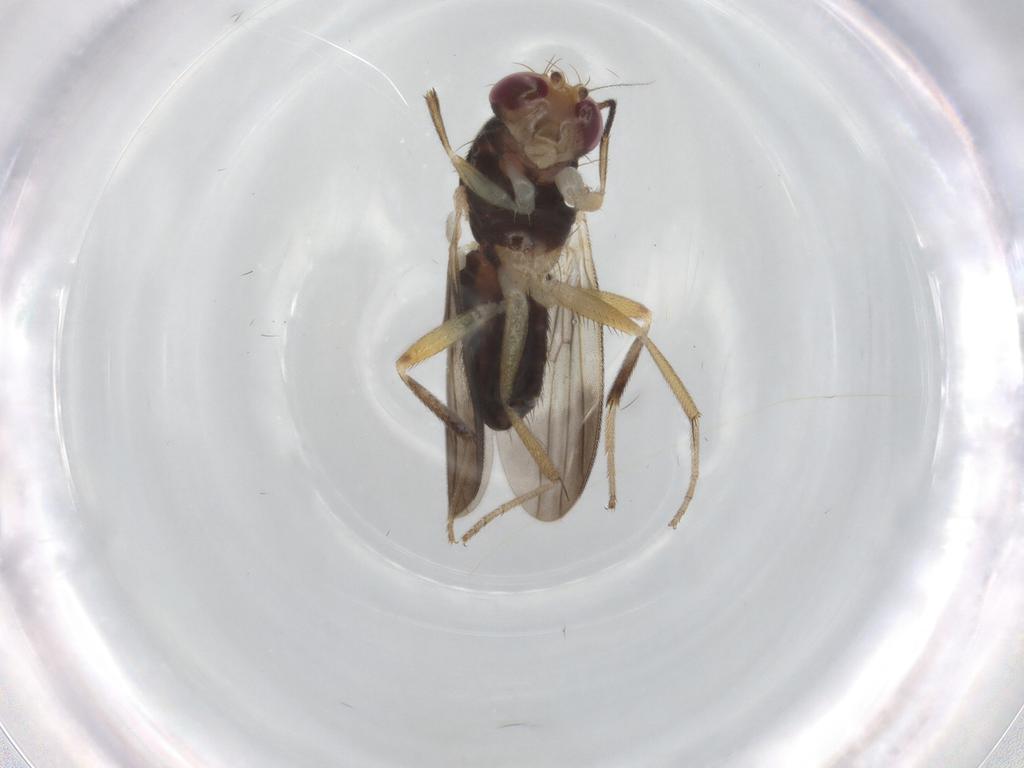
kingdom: Animalia
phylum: Arthropoda
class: Insecta
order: Diptera
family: Clusiidae
